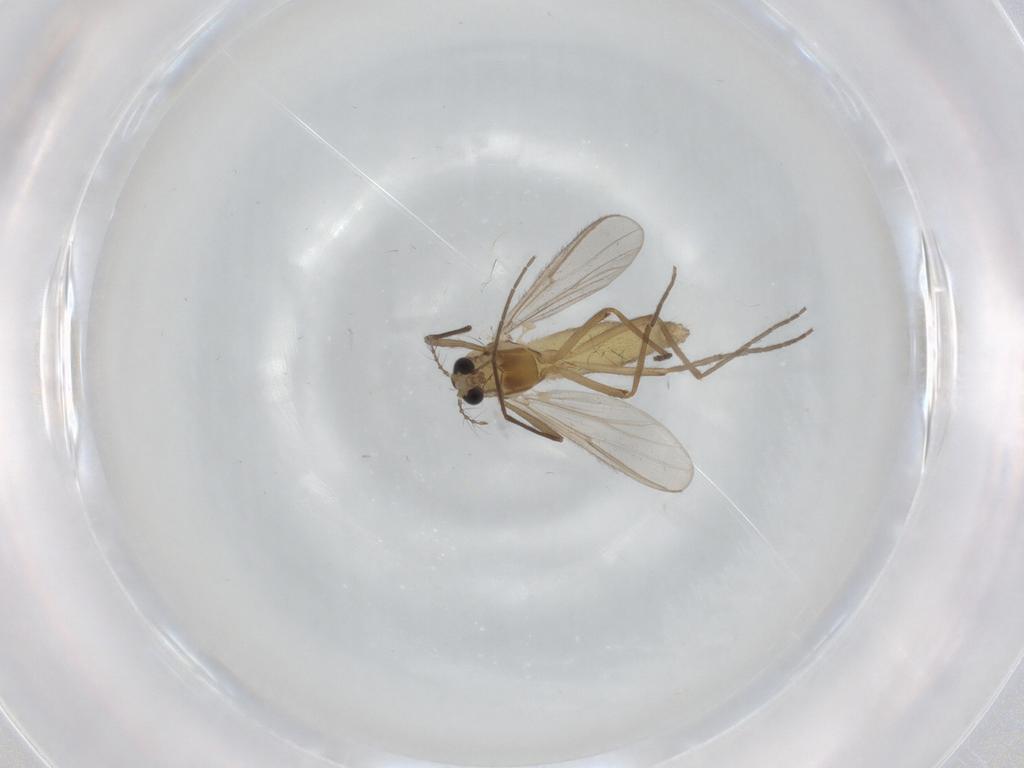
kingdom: Animalia
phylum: Arthropoda
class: Insecta
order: Diptera
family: Chironomidae
